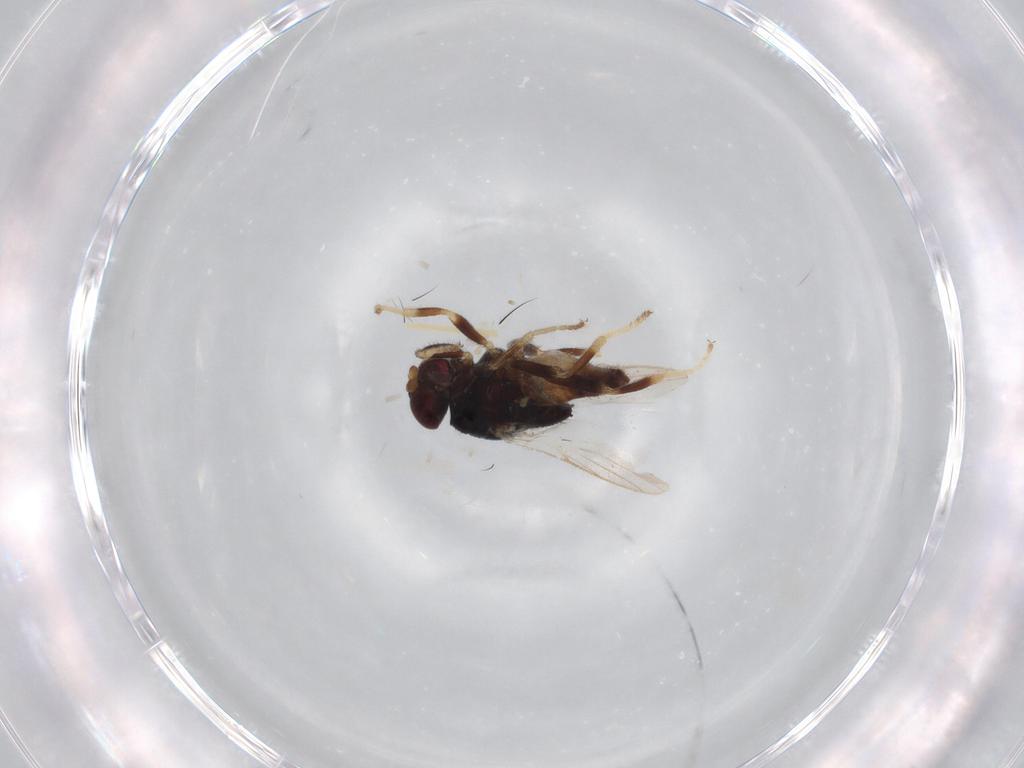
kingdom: Animalia
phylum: Arthropoda
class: Insecta
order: Diptera
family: Chloropidae
